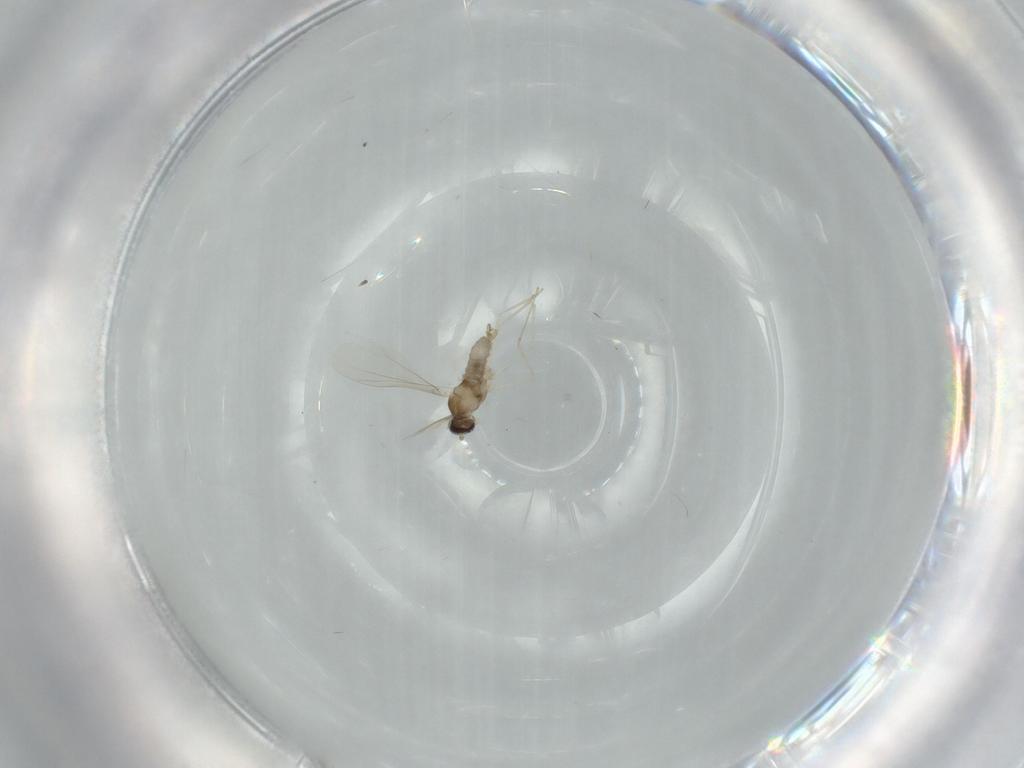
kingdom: Animalia
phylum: Arthropoda
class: Insecta
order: Diptera
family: Cecidomyiidae
